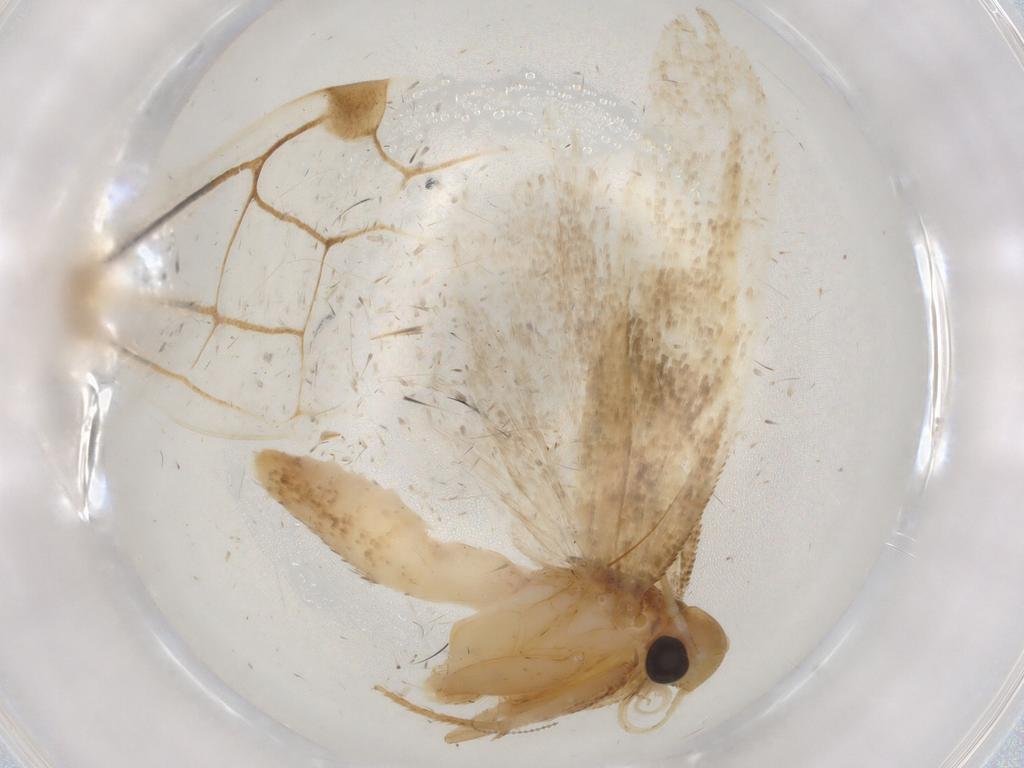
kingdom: Animalia
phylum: Arthropoda
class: Insecta
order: Lepidoptera
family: Gelechiidae
